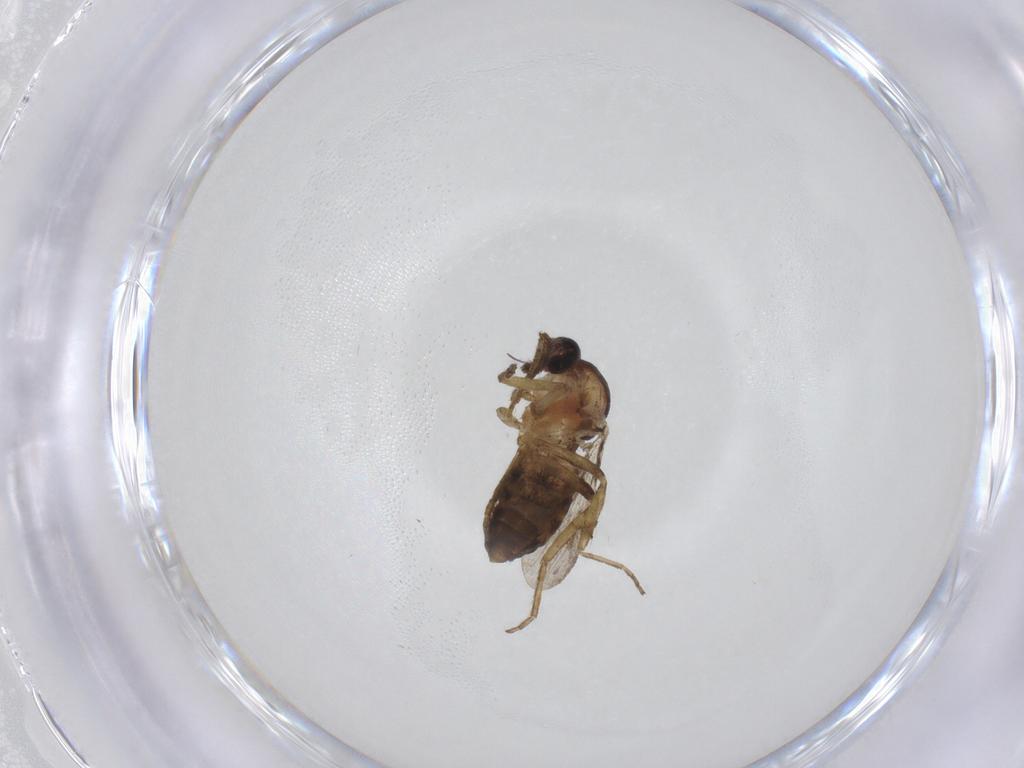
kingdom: Animalia
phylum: Arthropoda
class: Insecta
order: Diptera
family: Ceratopogonidae
